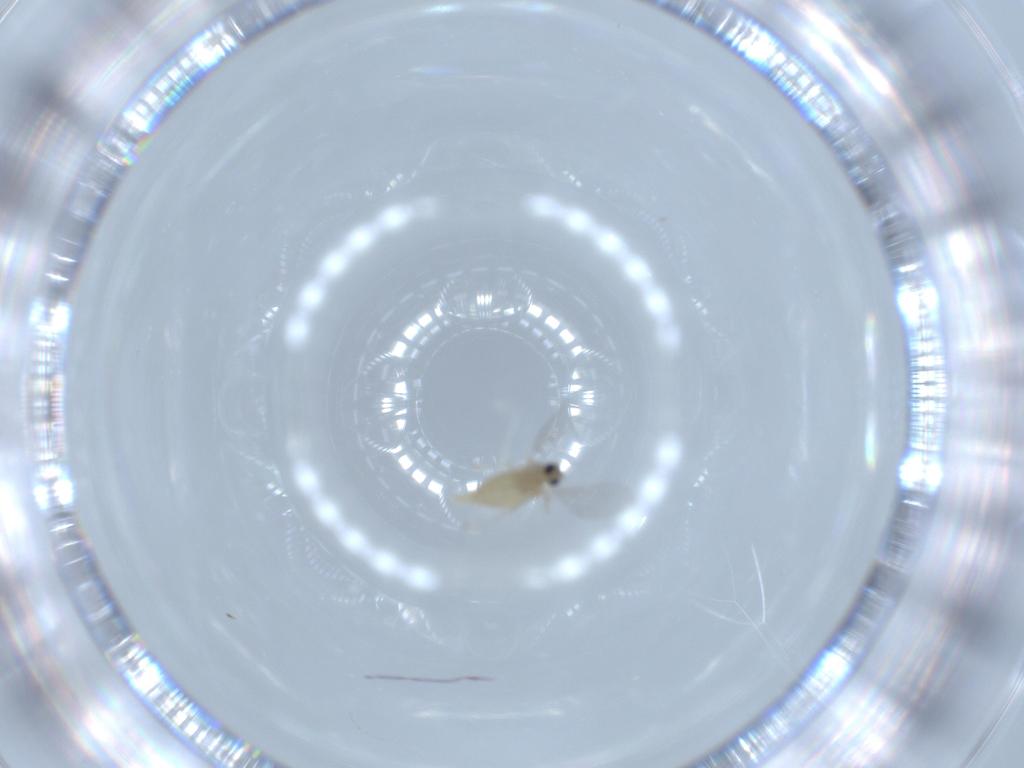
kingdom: Animalia
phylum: Arthropoda
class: Insecta
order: Diptera
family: Cecidomyiidae
